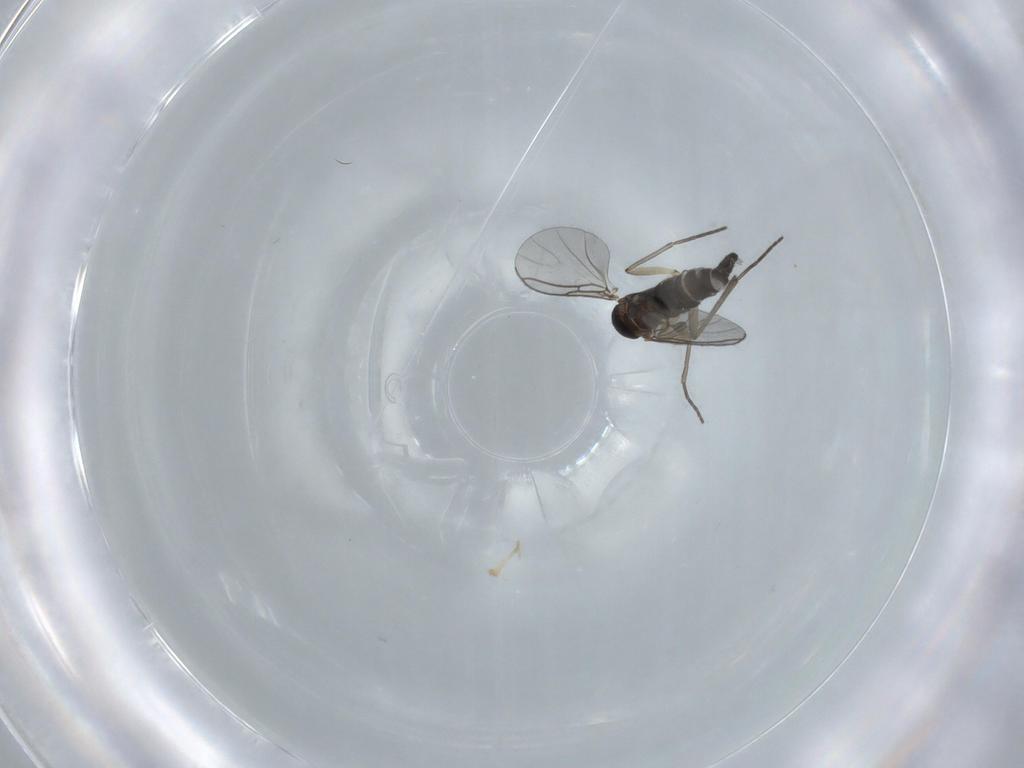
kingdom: Animalia
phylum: Arthropoda
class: Insecta
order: Diptera
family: Sciaridae
